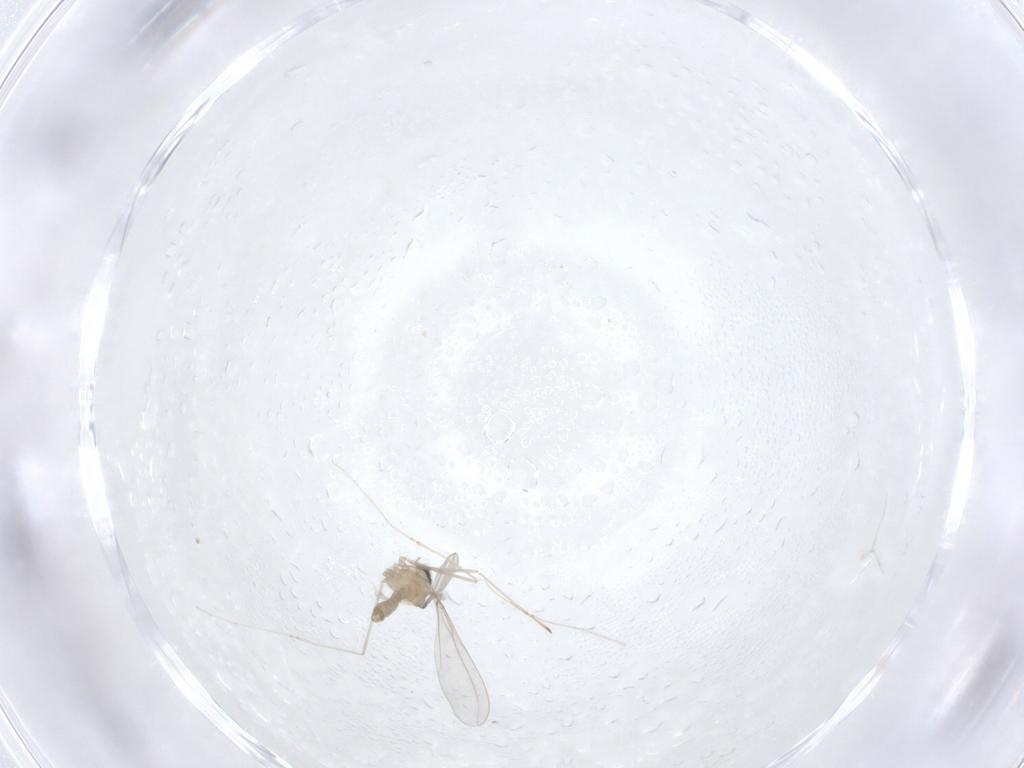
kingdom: Animalia
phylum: Arthropoda
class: Insecta
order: Diptera
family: Cecidomyiidae
